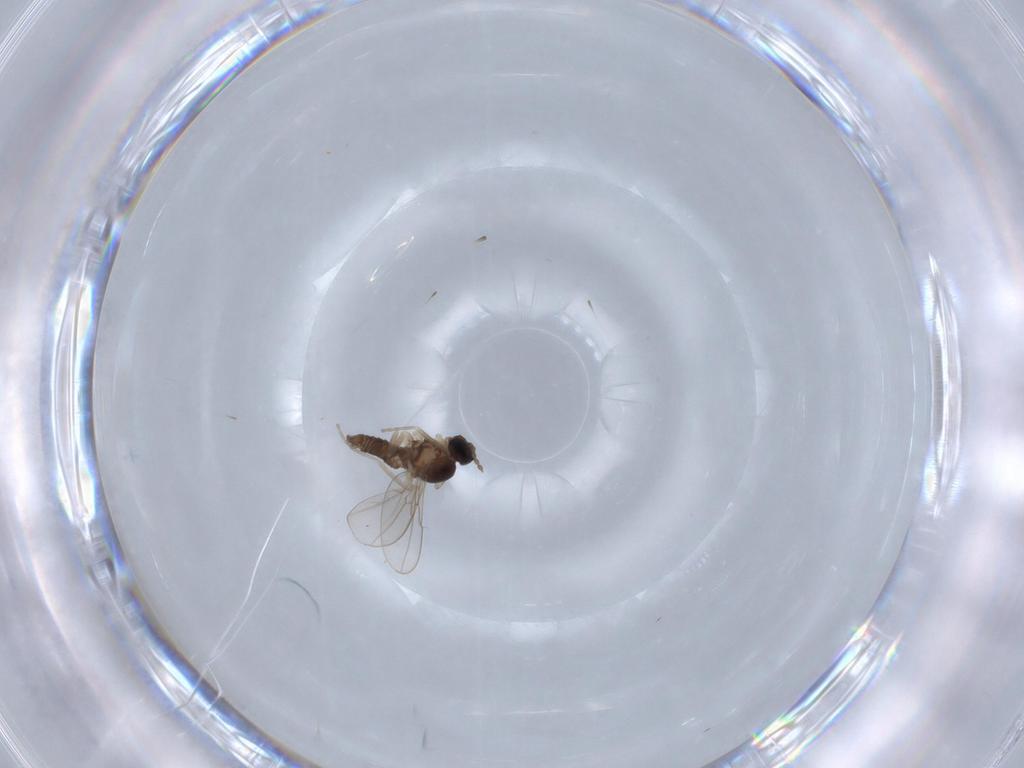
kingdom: Animalia
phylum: Arthropoda
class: Insecta
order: Diptera
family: Cecidomyiidae
